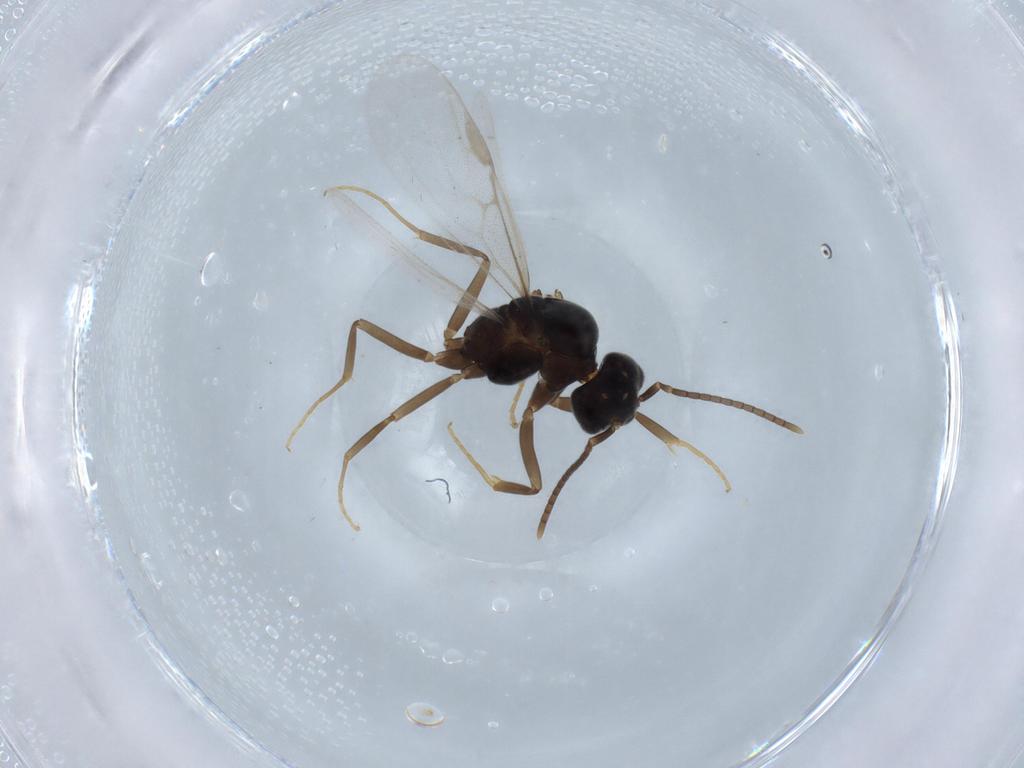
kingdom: Animalia
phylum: Arthropoda
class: Insecta
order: Hymenoptera
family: Formicidae
